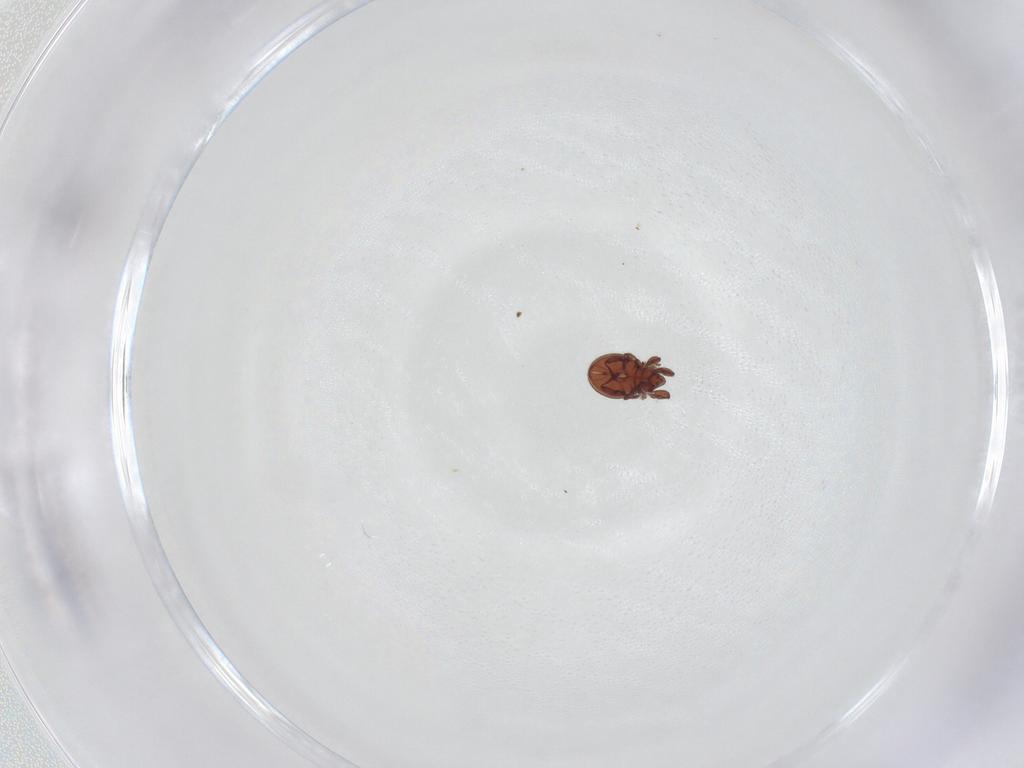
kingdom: Animalia
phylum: Arthropoda
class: Arachnida
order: Sarcoptiformes
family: Eremaeidae
